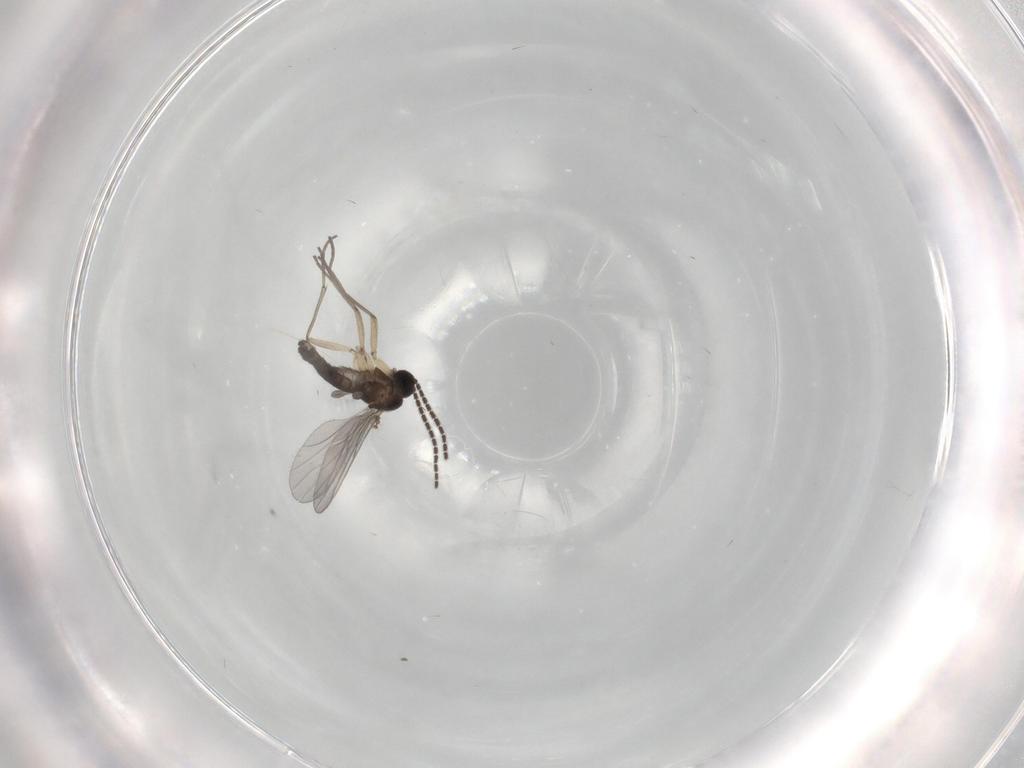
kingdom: Animalia
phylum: Arthropoda
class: Insecta
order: Diptera
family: Sciaridae
